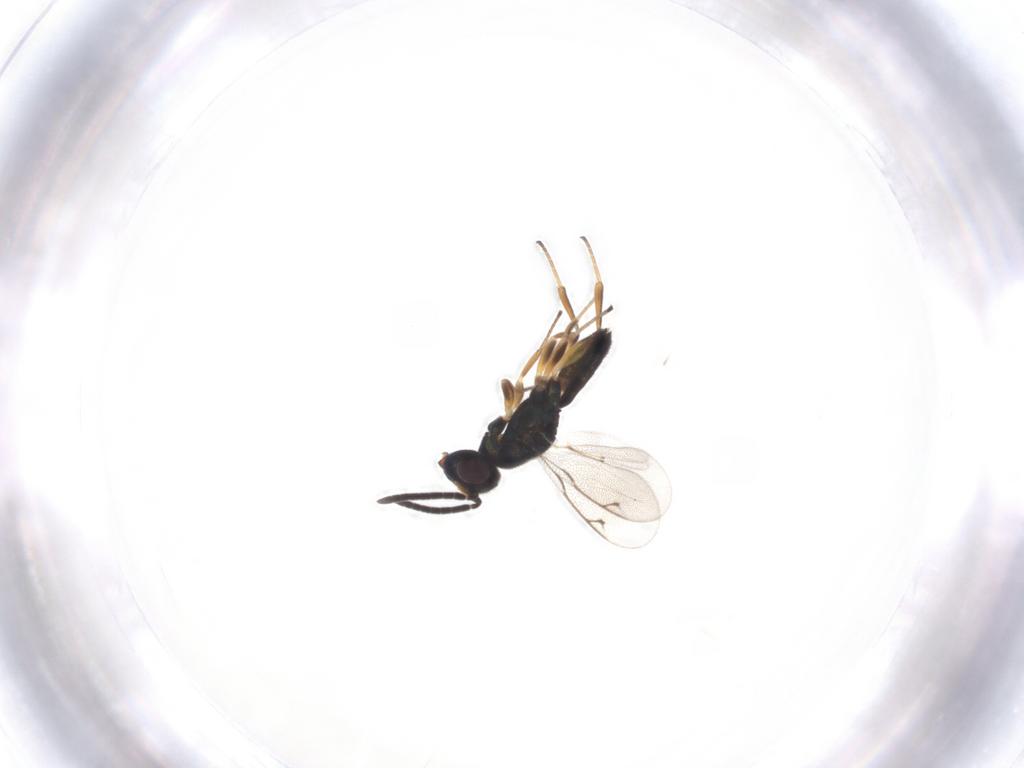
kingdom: Animalia
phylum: Arthropoda
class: Insecta
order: Hymenoptera
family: Eupelmidae
